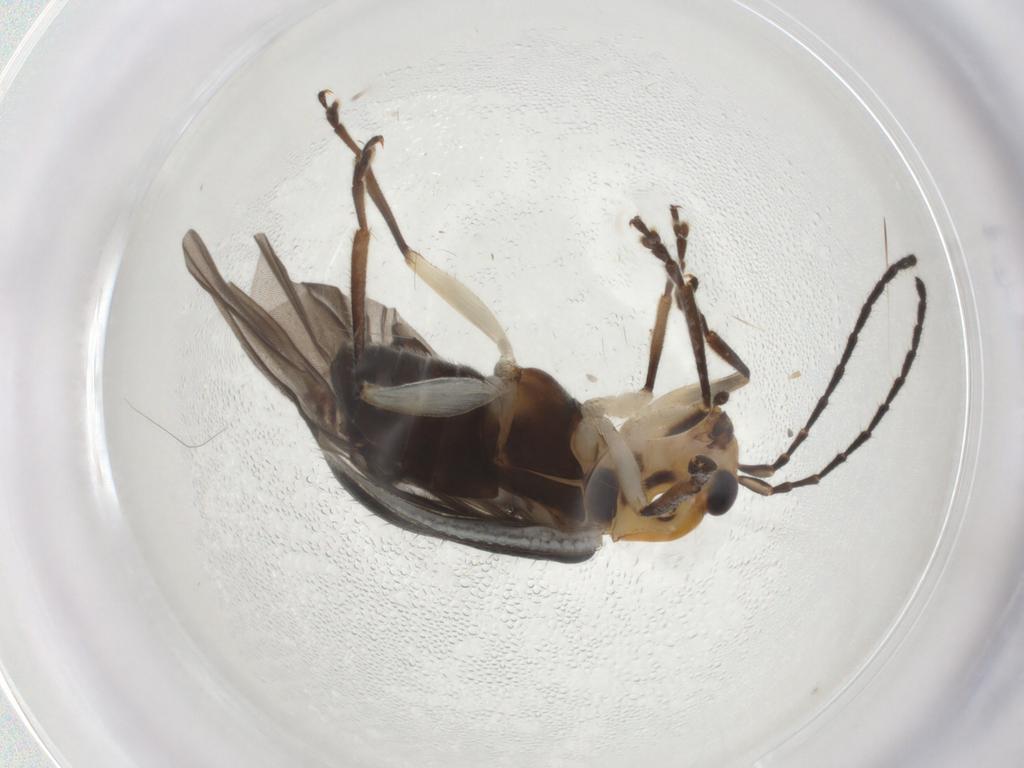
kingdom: Animalia
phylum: Arthropoda
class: Insecta
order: Coleoptera
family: Chrysomelidae
